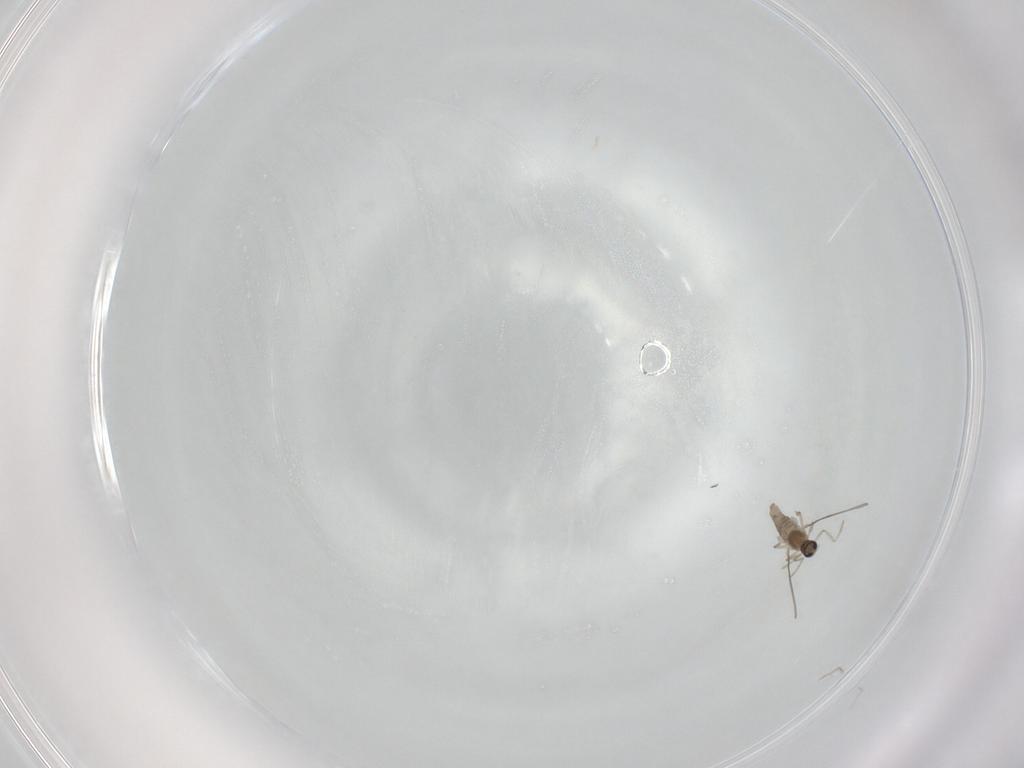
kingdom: Animalia
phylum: Arthropoda
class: Insecta
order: Diptera
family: Cecidomyiidae
